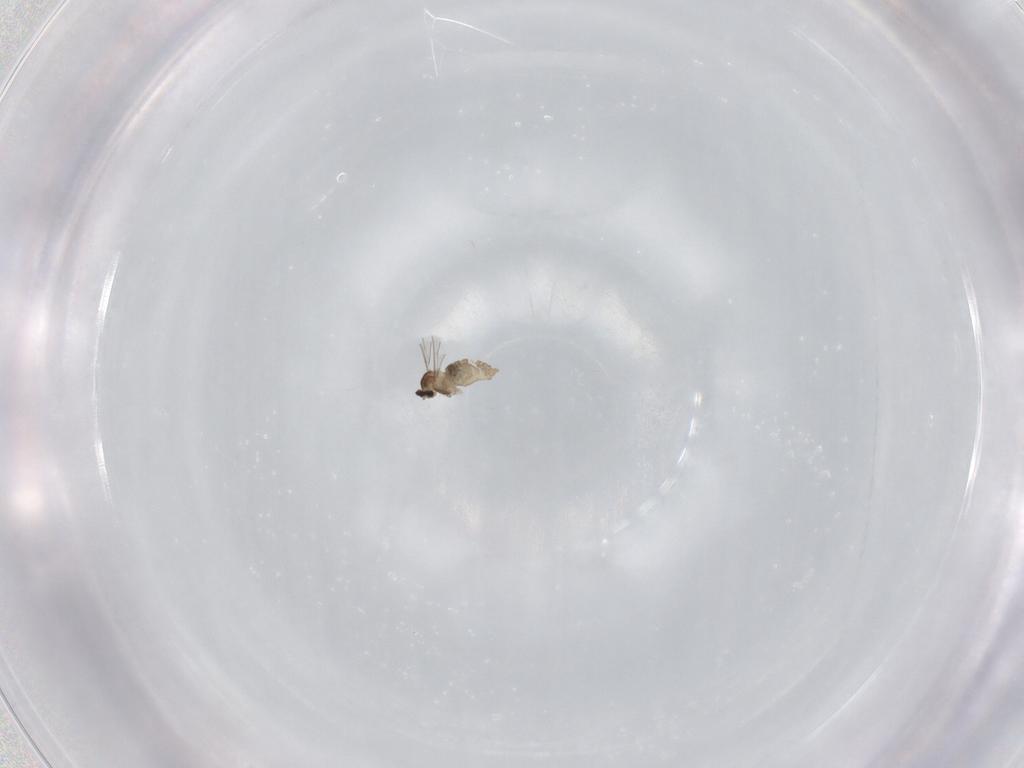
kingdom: Animalia
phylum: Arthropoda
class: Insecta
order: Diptera
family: Cecidomyiidae
